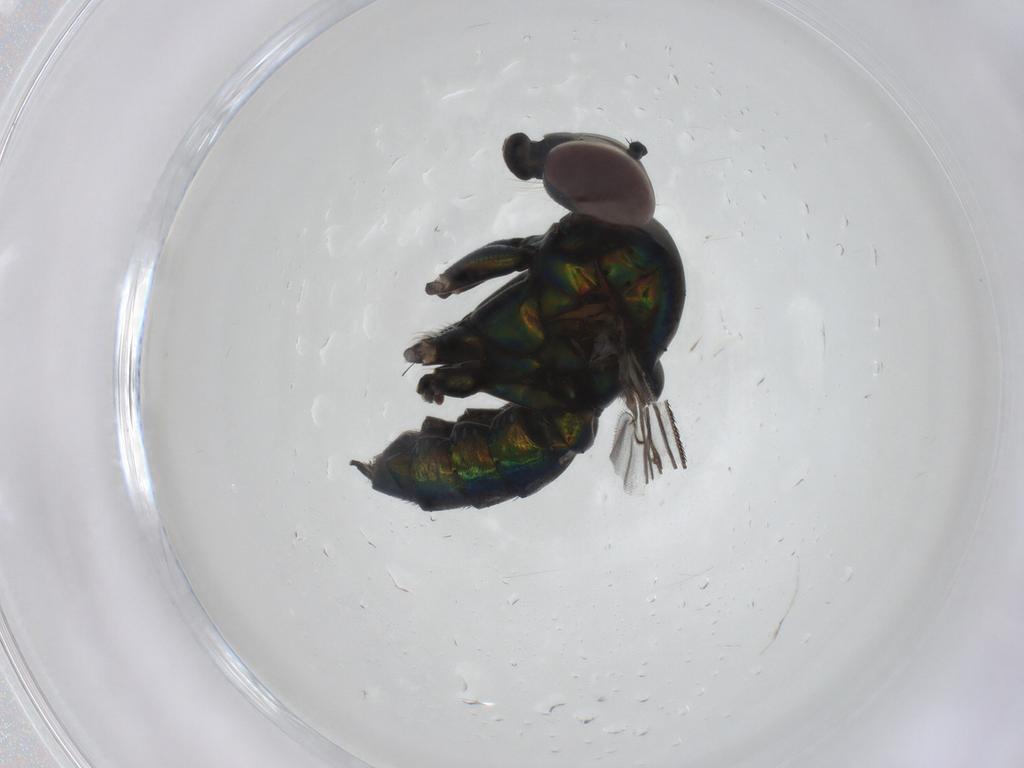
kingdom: Animalia
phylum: Arthropoda
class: Insecta
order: Diptera
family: Dolichopodidae
